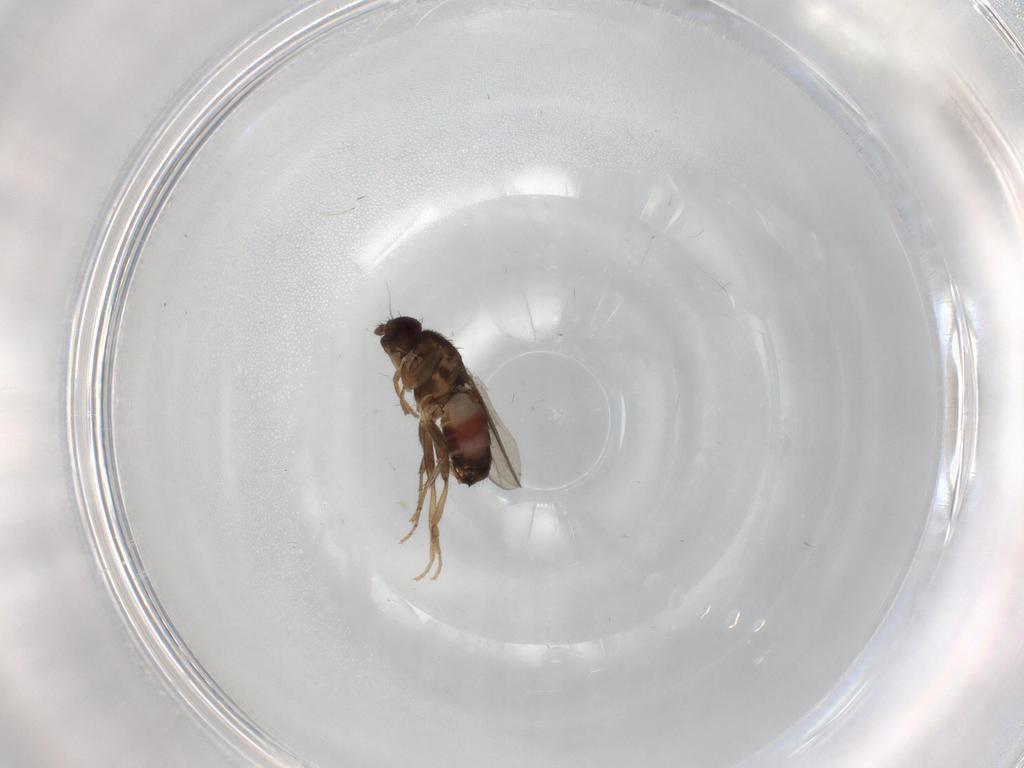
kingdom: Animalia
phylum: Arthropoda
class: Insecta
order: Diptera
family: Sphaeroceridae
